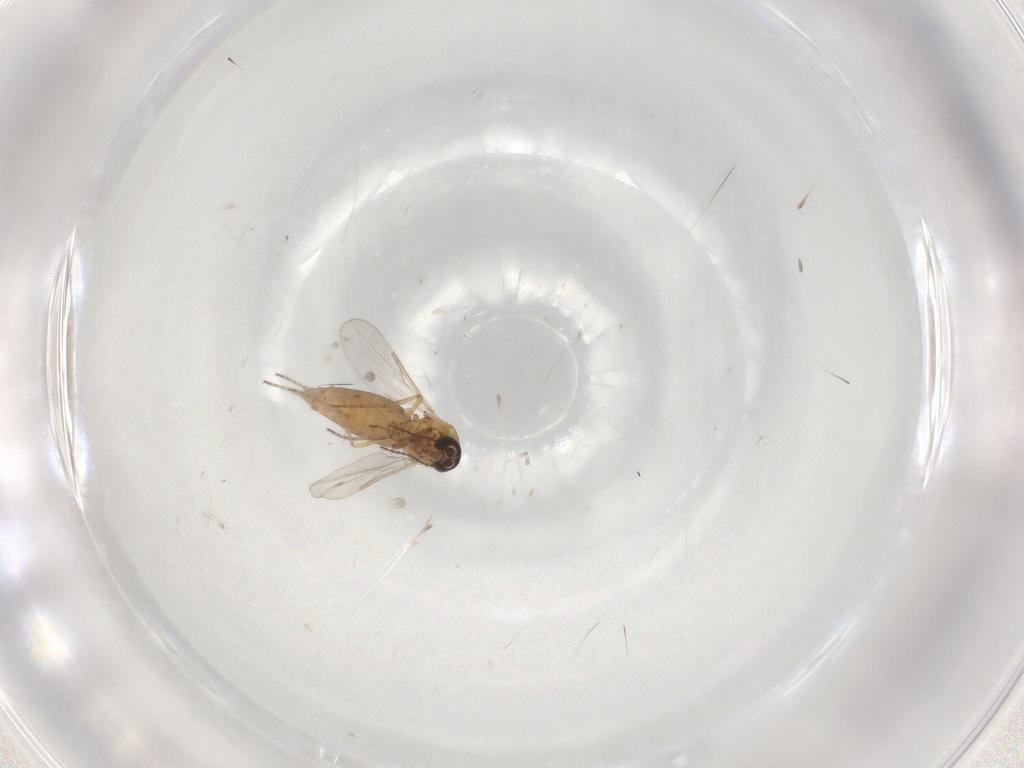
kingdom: Animalia
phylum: Arthropoda
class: Insecta
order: Diptera
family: Ceratopogonidae
